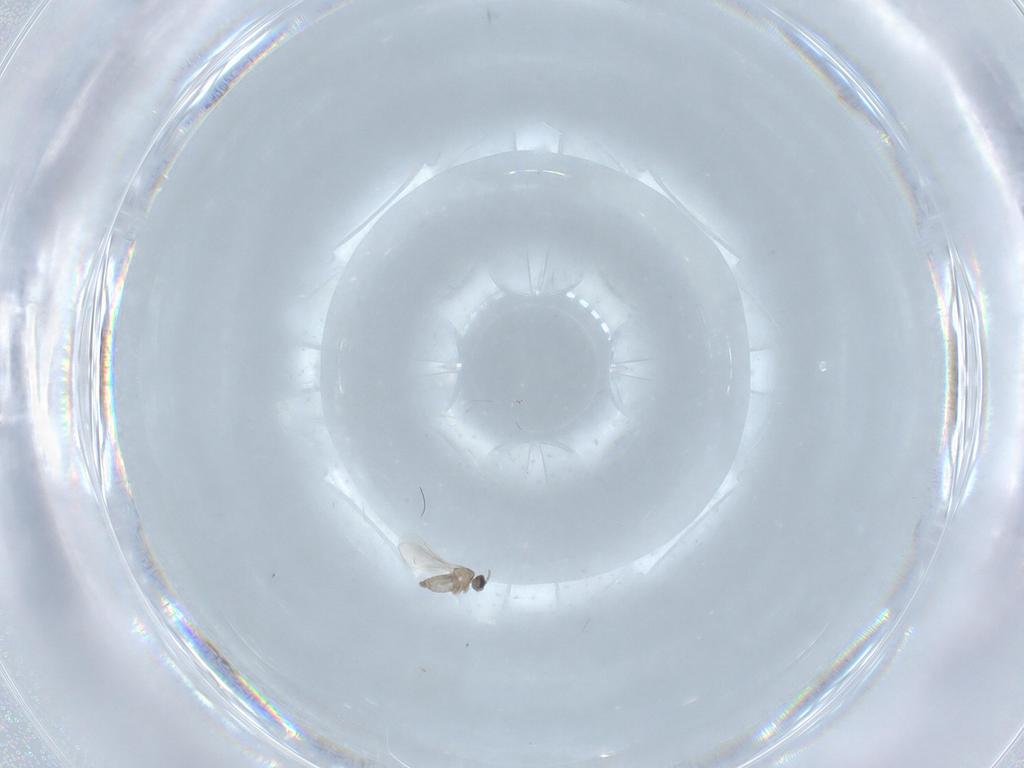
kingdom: Animalia
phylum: Arthropoda
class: Insecta
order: Diptera
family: Cecidomyiidae
